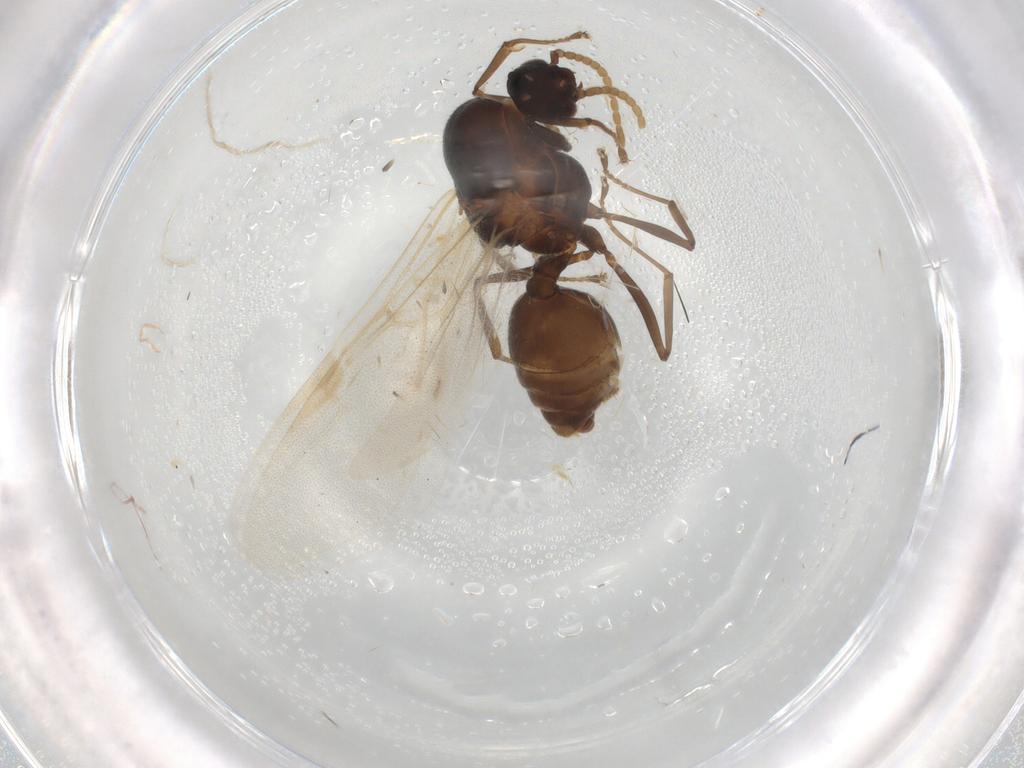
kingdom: Animalia
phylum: Arthropoda
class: Insecta
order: Hymenoptera
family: Formicidae
